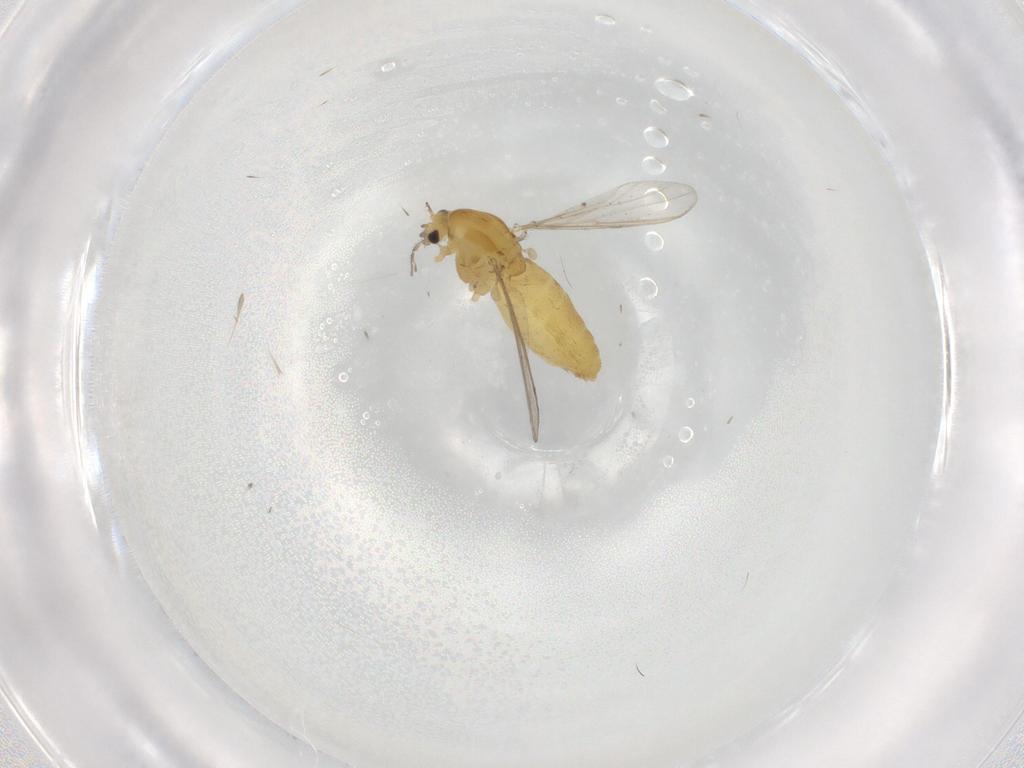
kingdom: Animalia
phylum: Arthropoda
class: Insecta
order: Diptera
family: Chironomidae
